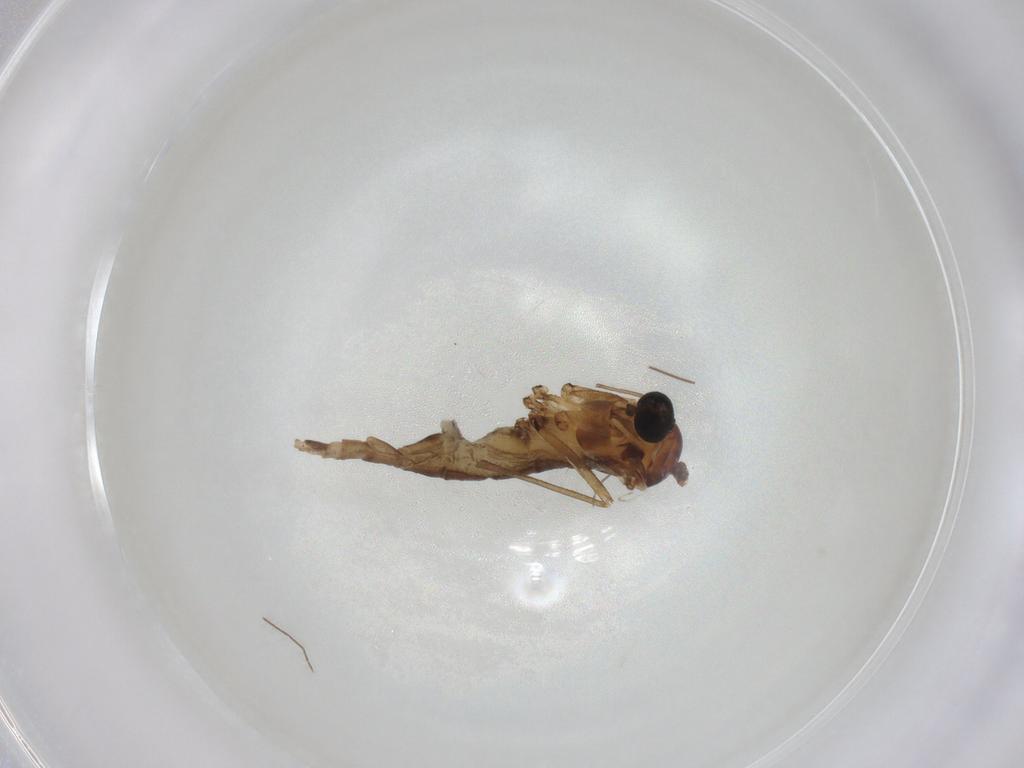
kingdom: Animalia
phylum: Arthropoda
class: Insecta
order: Diptera
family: Sciaridae
